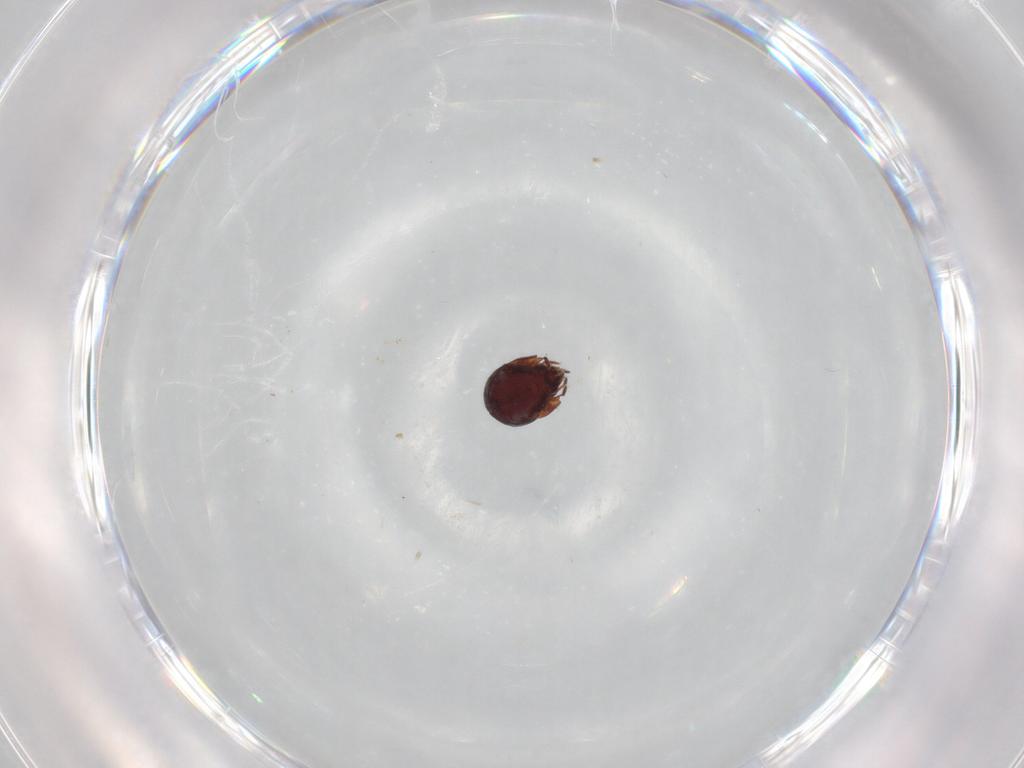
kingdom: Animalia
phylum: Arthropoda
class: Arachnida
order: Sarcoptiformes
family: Humerobatidae
